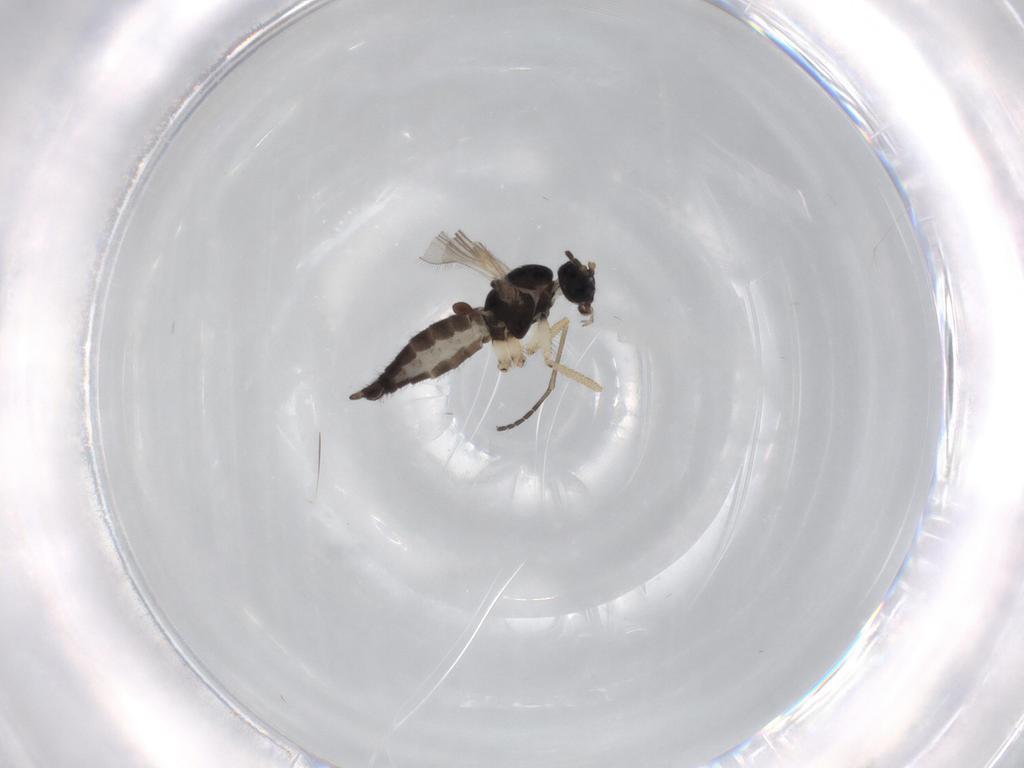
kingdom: Animalia
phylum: Arthropoda
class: Insecta
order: Diptera
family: Sciaridae
